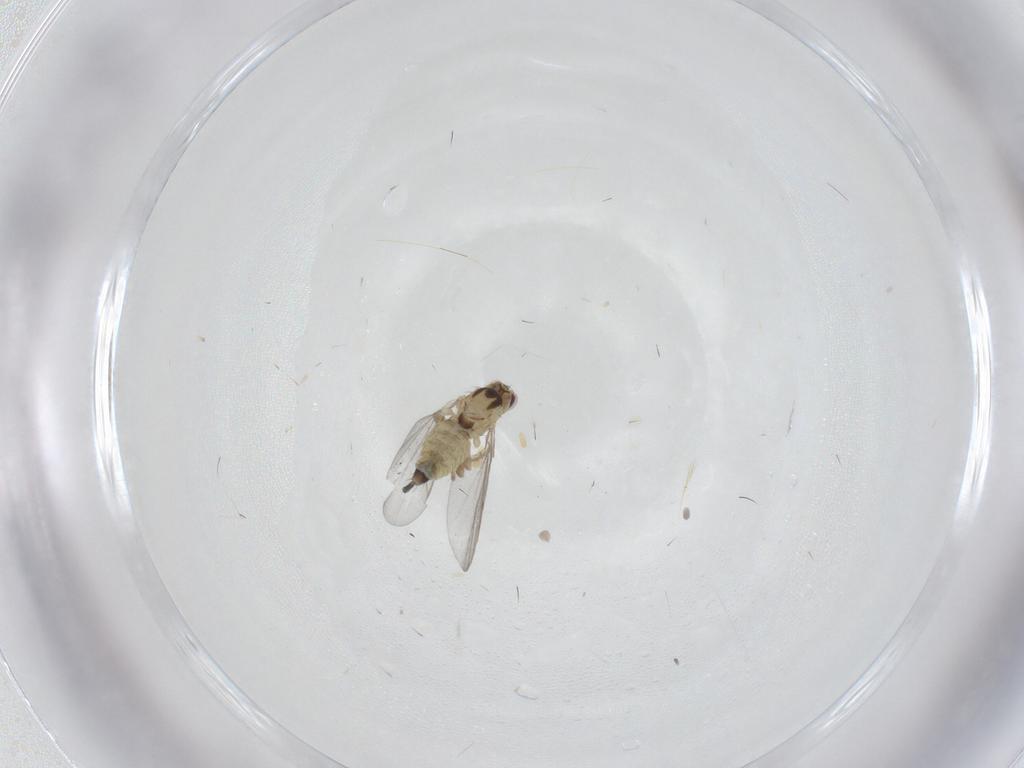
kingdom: Animalia
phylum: Arthropoda
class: Insecta
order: Diptera
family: Agromyzidae
